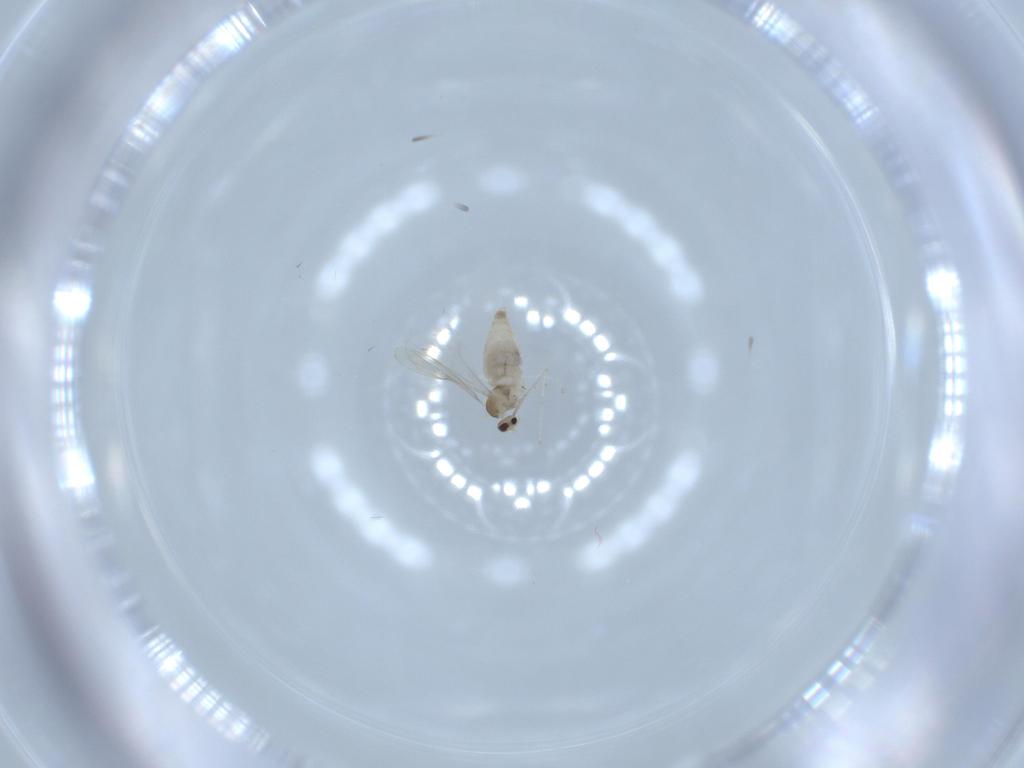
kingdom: Animalia
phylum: Arthropoda
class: Insecta
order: Diptera
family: Cecidomyiidae
